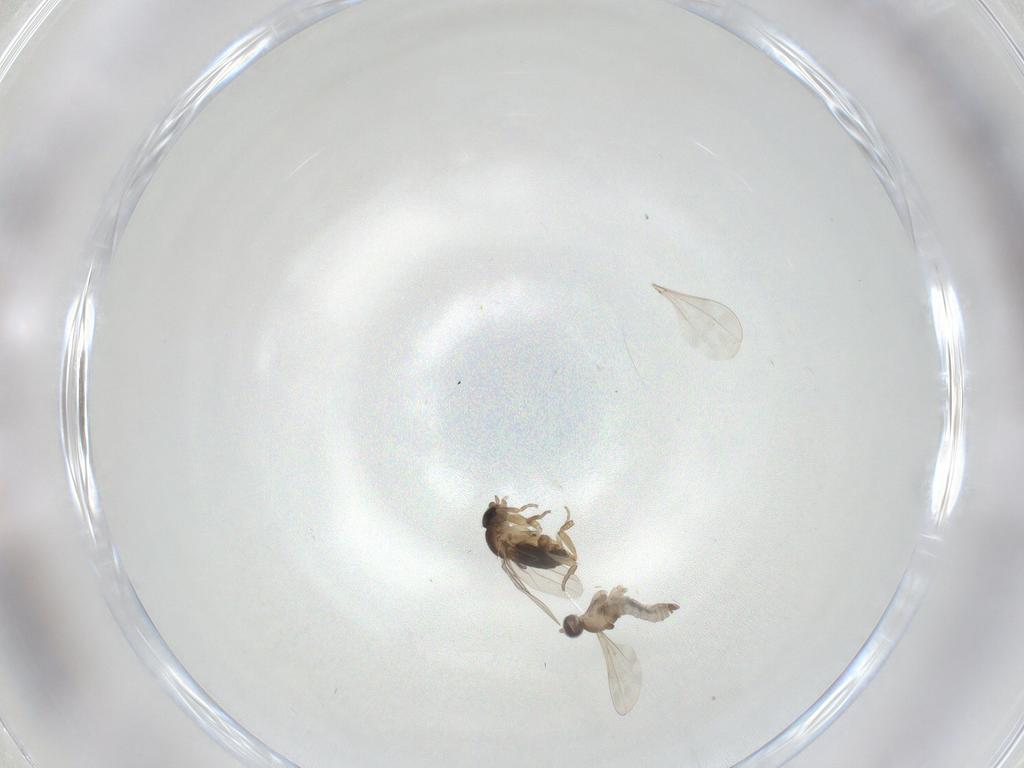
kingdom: Animalia
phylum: Arthropoda
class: Insecta
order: Diptera
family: Phoridae
